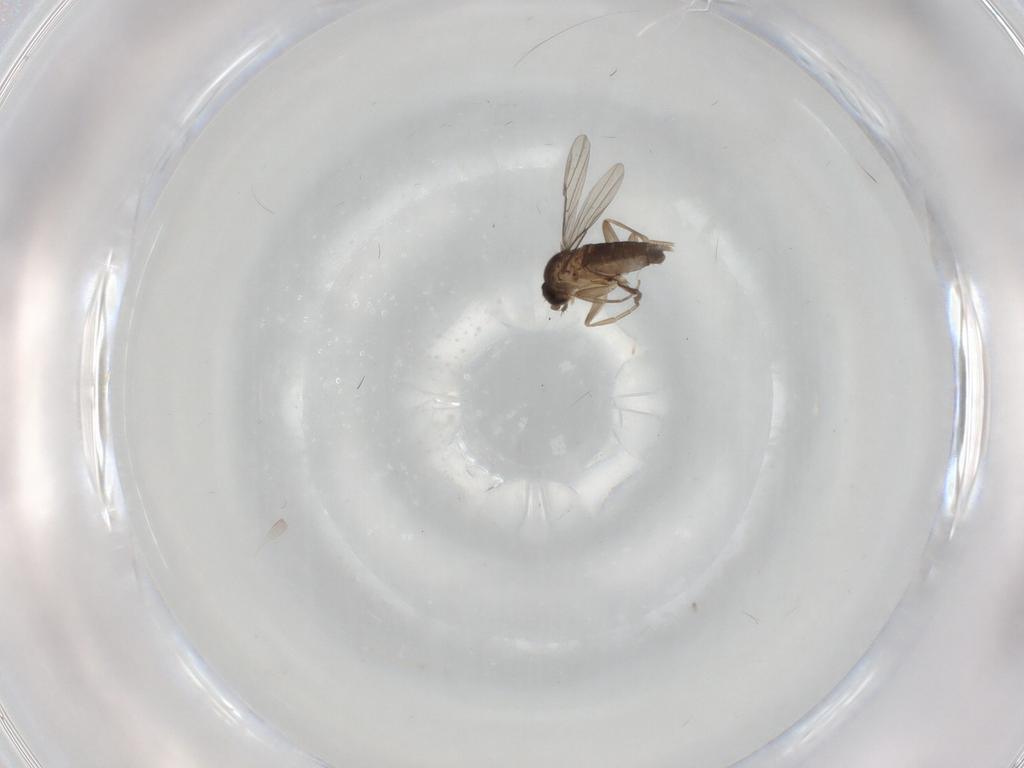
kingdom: Animalia
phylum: Arthropoda
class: Insecta
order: Diptera
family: Phoridae
